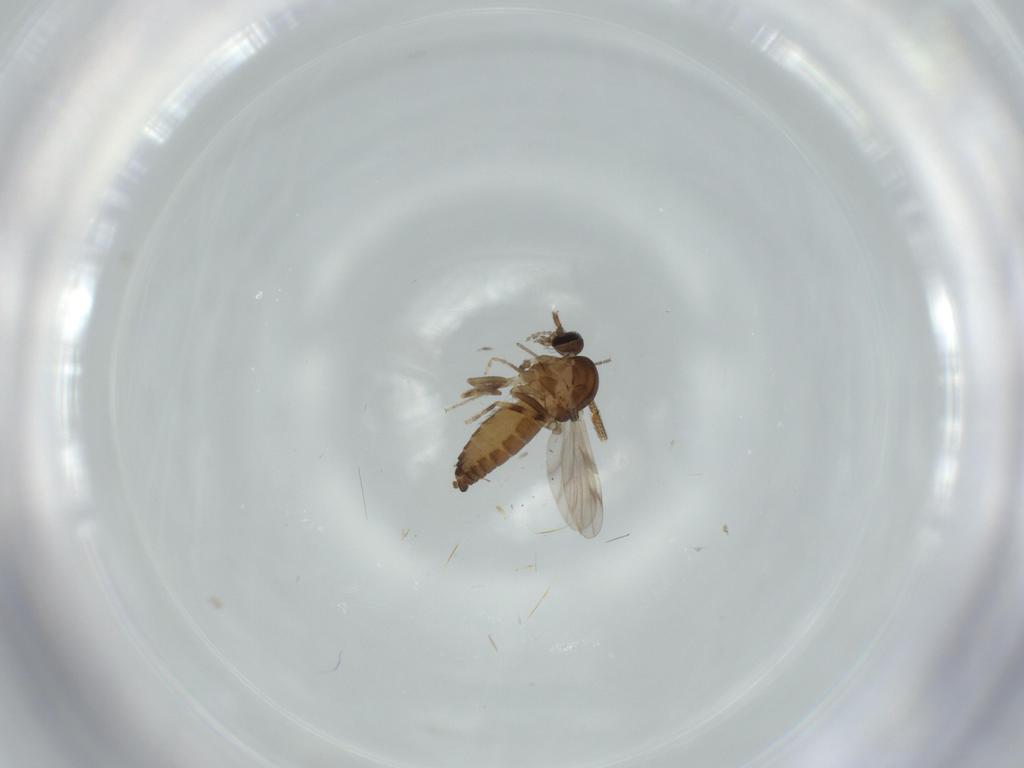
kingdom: Animalia
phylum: Arthropoda
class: Insecta
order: Diptera
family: Ceratopogonidae
